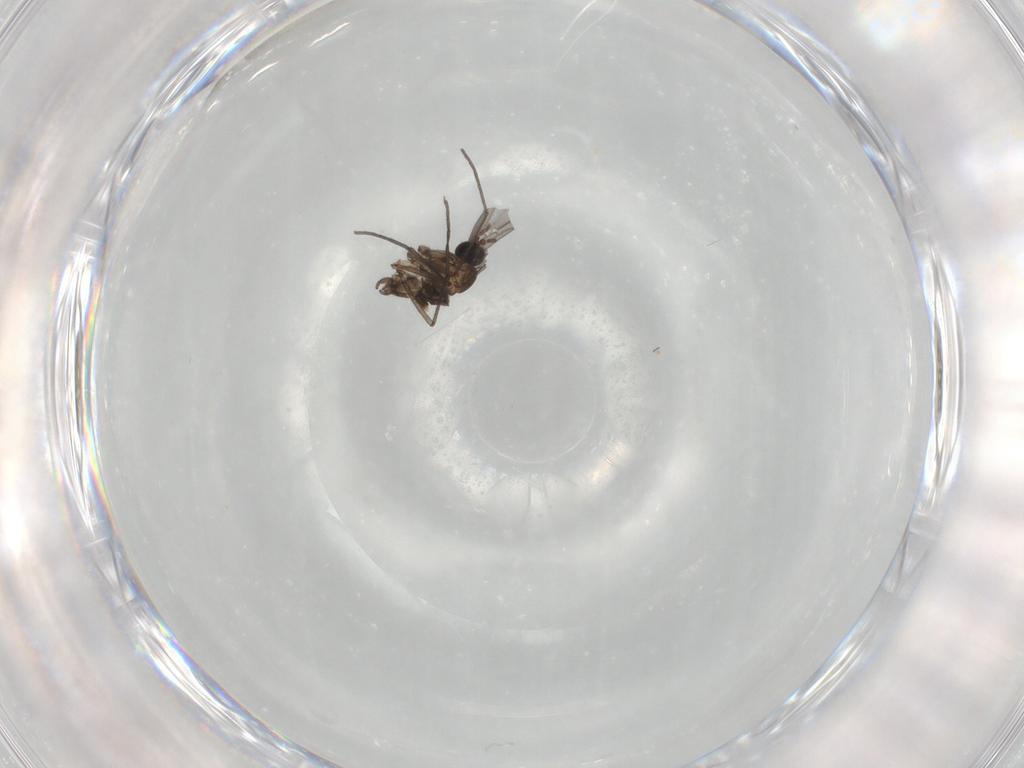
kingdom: Animalia
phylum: Arthropoda
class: Insecta
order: Diptera
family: Sciaridae
